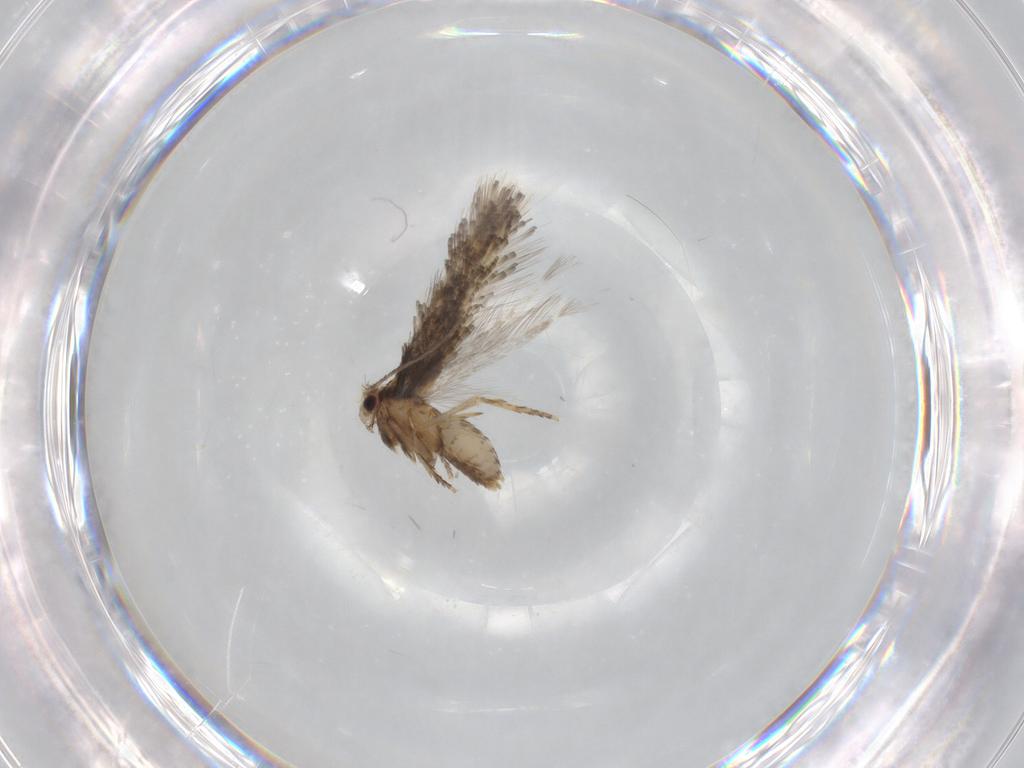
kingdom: Animalia
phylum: Arthropoda
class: Insecta
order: Lepidoptera
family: Nepticulidae
